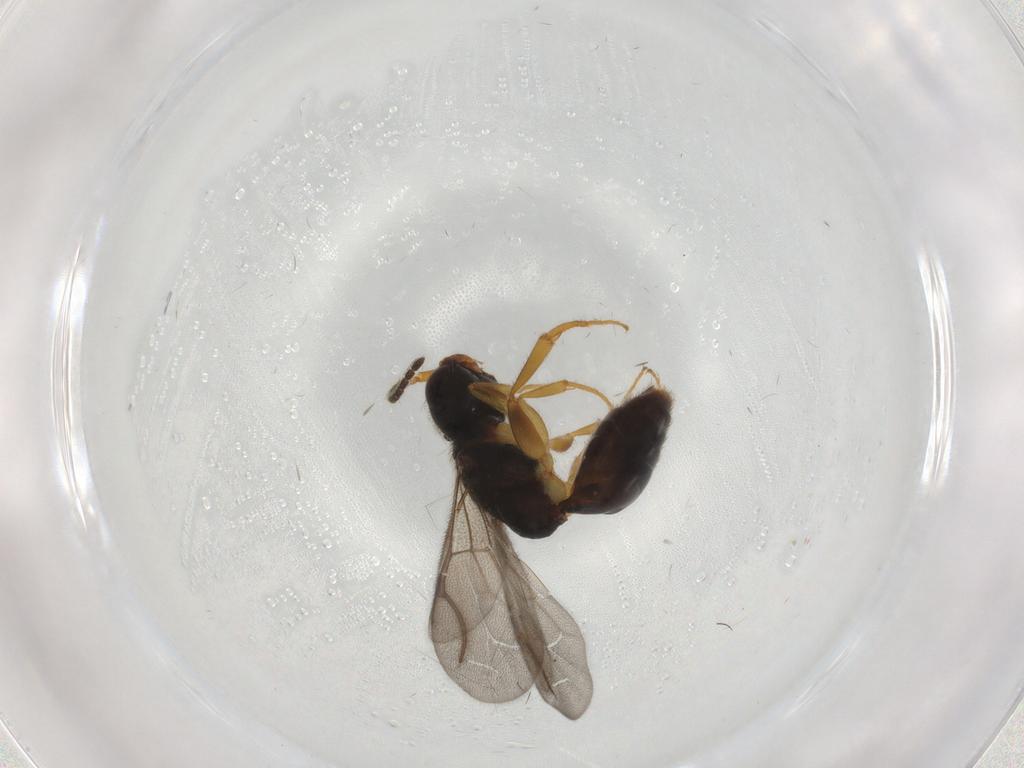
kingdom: Animalia
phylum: Arthropoda
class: Insecta
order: Hymenoptera
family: Bethylidae
